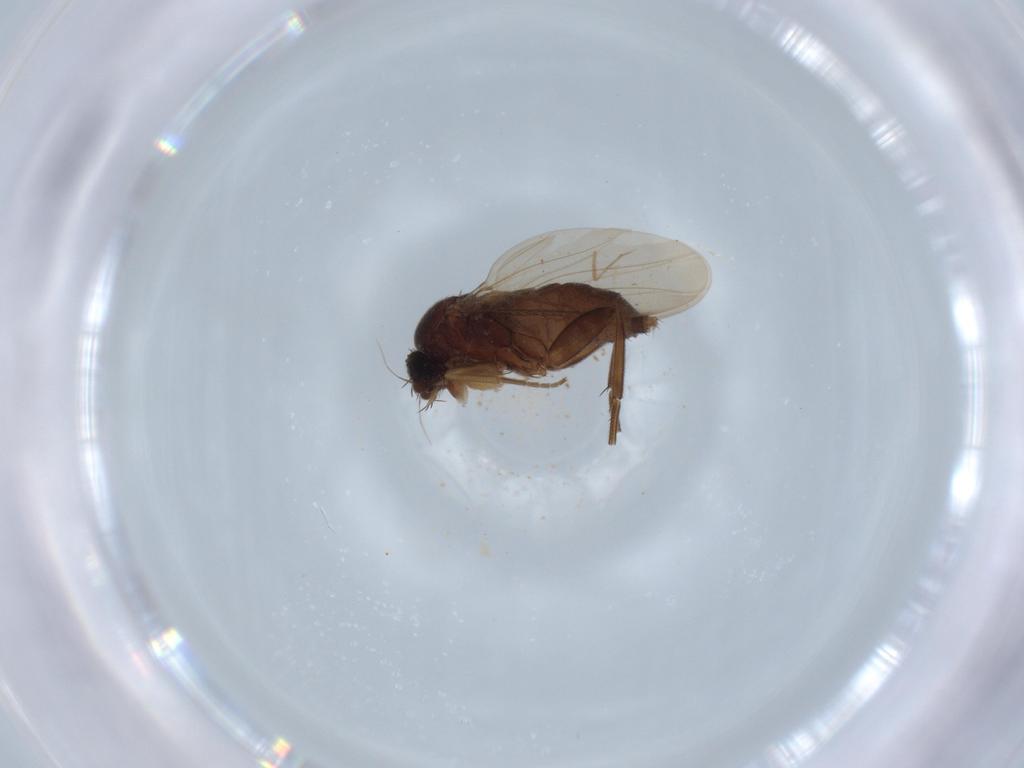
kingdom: Animalia
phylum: Arthropoda
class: Insecta
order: Diptera
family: Phoridae
